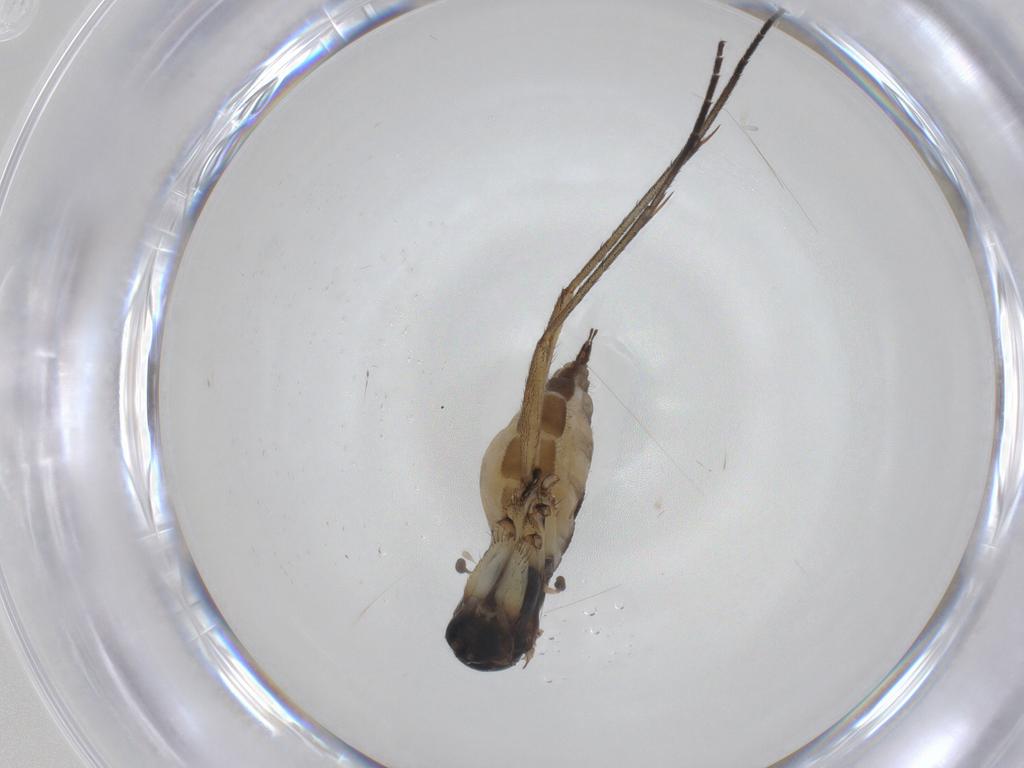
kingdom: Animalia
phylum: Arthropoda
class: Insecta
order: Diptera
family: Sciaridae
